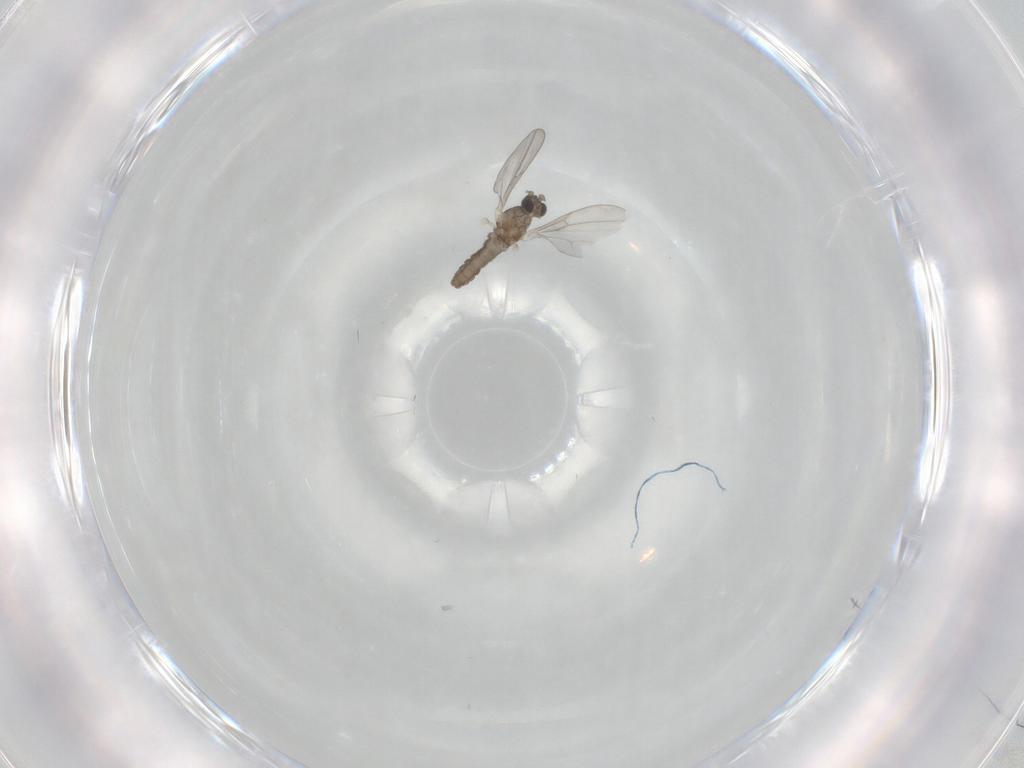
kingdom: Animalia
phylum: Arthropoda
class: Insecta
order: Diptera
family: Cecidomyiidae
